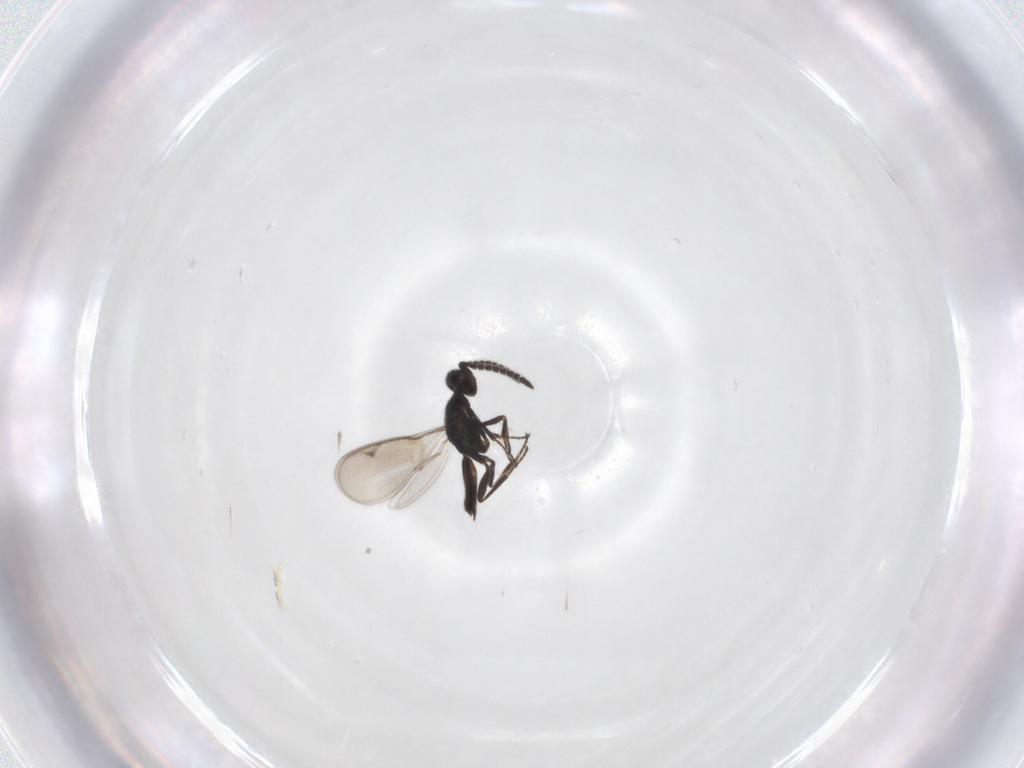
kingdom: Animalia
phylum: Arthropoda
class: Insecta
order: Hymenoptera
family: Eupelmidae
